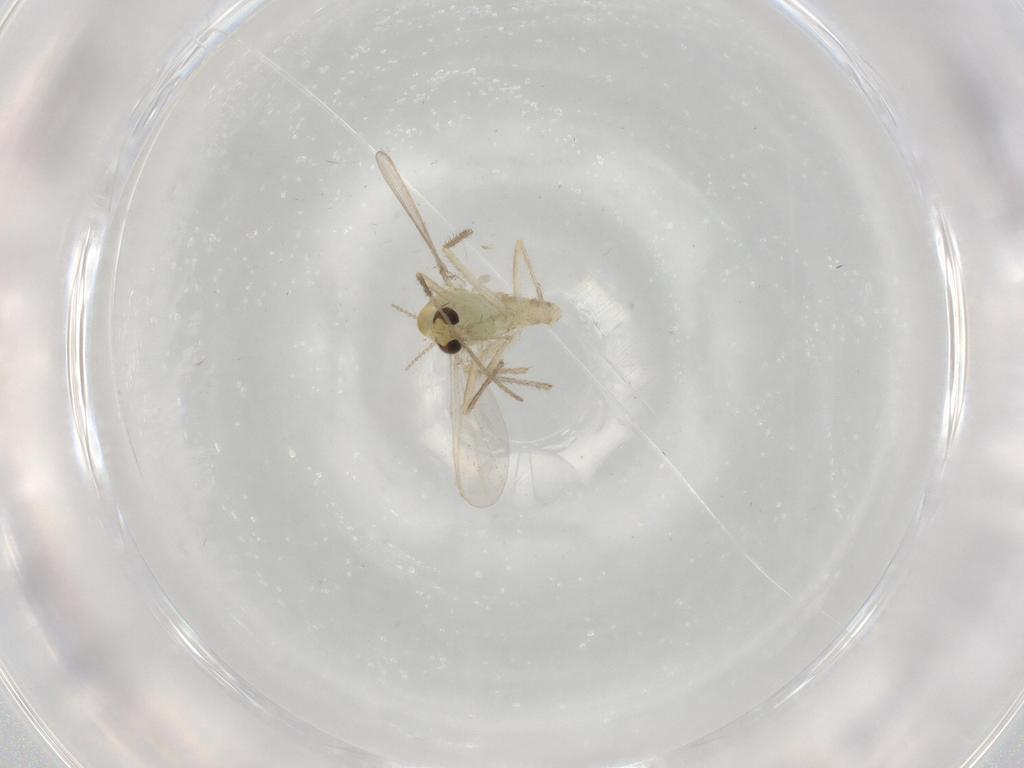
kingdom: Animalia
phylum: Arthropoda
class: Insecta
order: Diptera
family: Chironomidae
